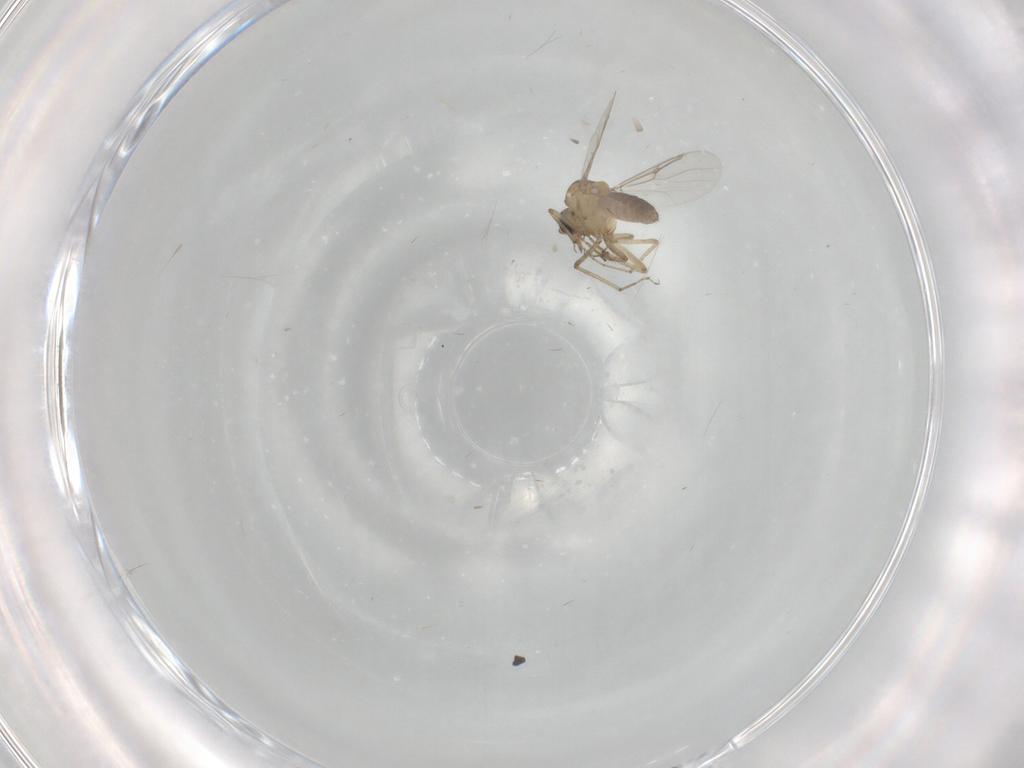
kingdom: Animalia
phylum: Arthropoda
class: Insecta
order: Diptera
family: Ceratopogonidae
